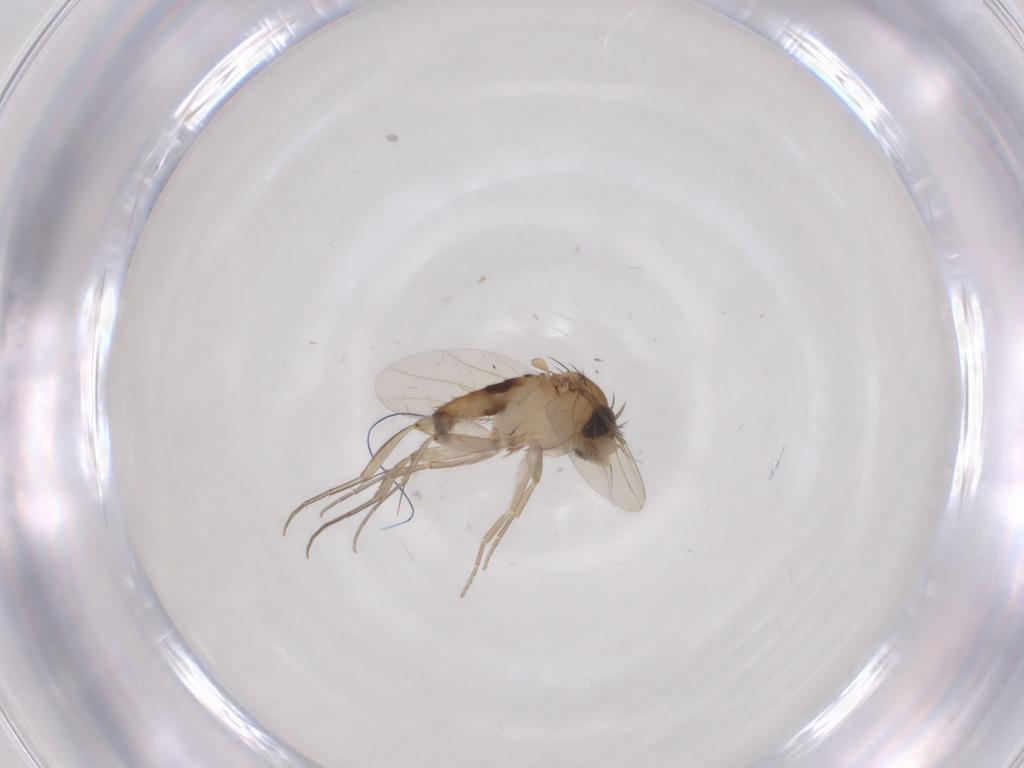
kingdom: Animalia
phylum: Arthropoda
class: Insecta
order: Diptera
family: Phoridae
